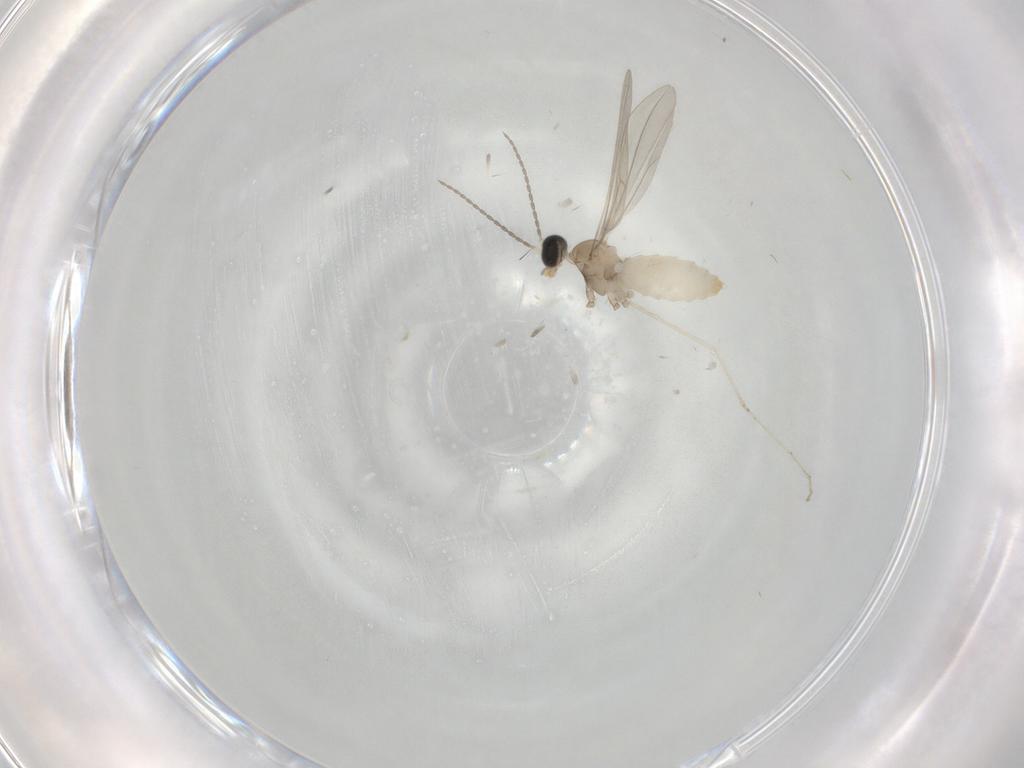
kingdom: Animalia
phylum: Arthropoda
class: Insecta
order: Diptera
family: Cecidomyiidae
